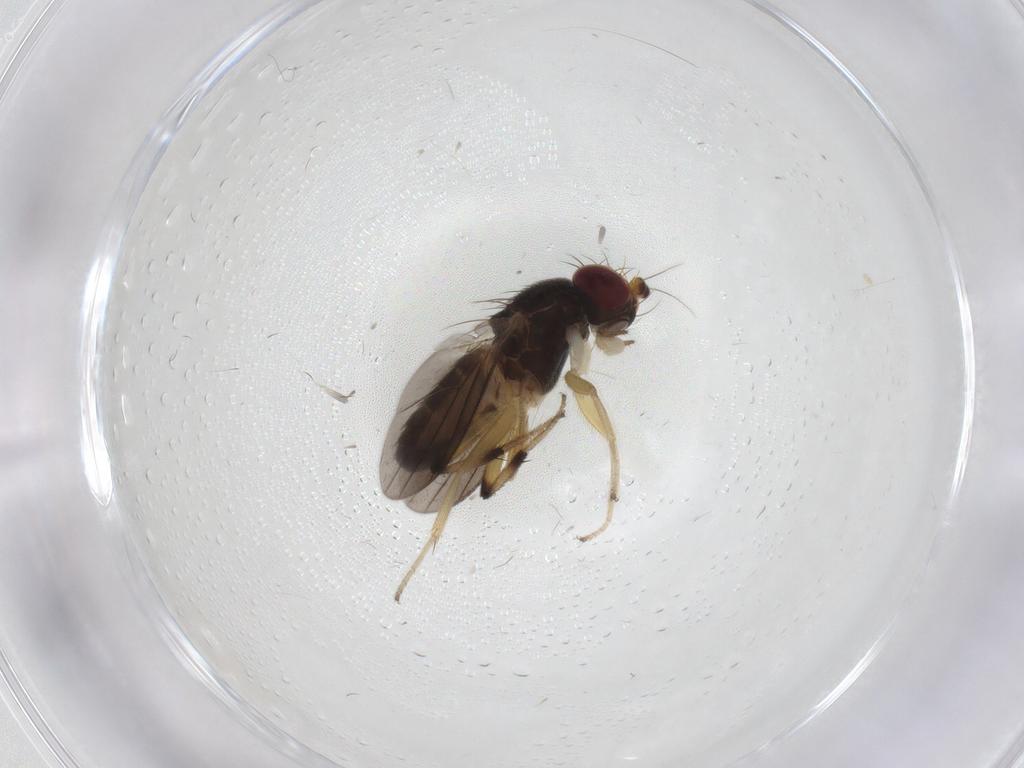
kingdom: Animalia
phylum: Arthropoda
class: Insecta
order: Diptera
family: Clusiidae
